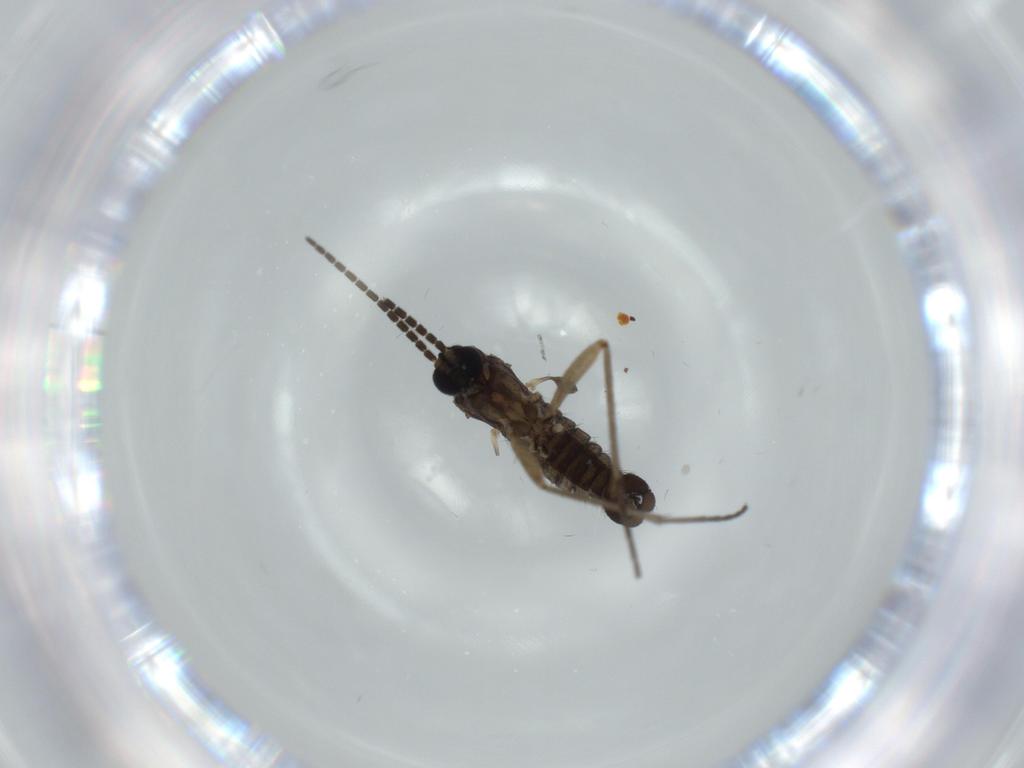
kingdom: Animalia
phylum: Arthropoda
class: Insecta
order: Diptera
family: Sciaridae
